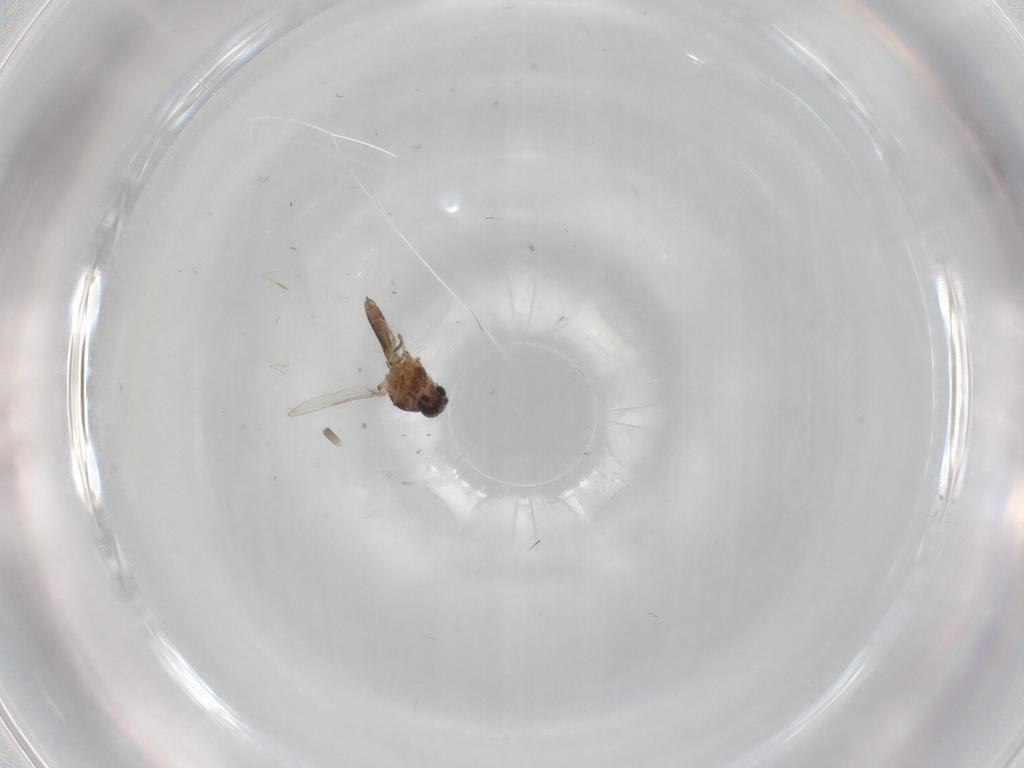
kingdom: Animalia
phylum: Arthropoda
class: Insecta
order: Diptera
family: Ceratopogonidae
